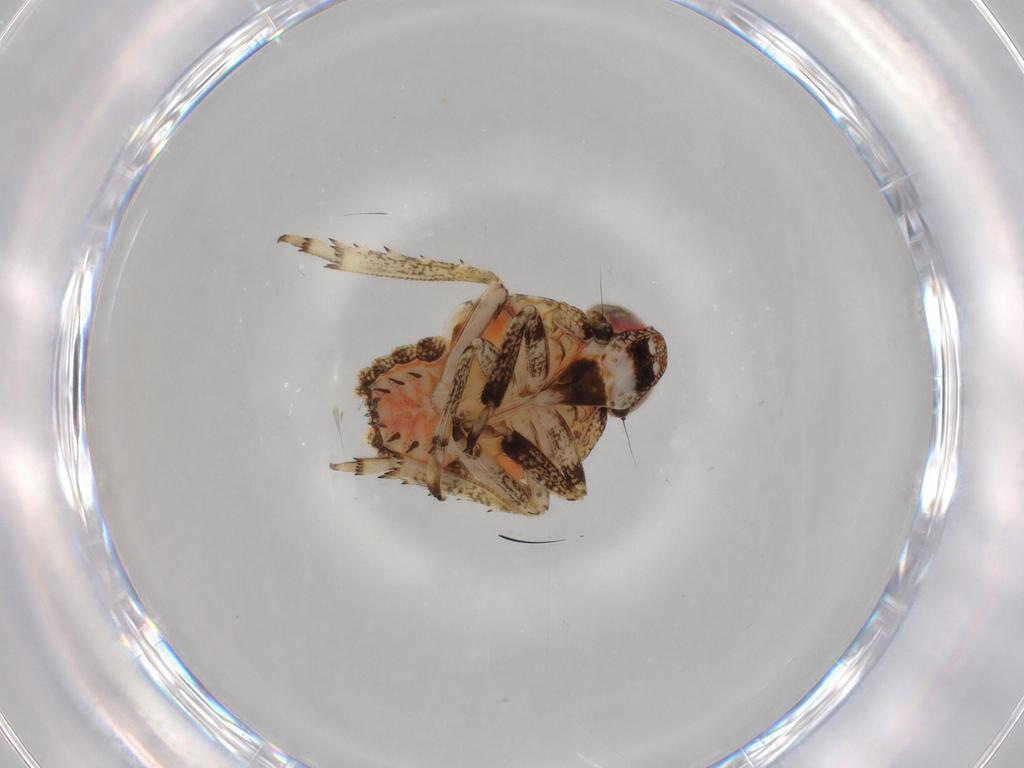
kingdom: Animalia
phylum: Arthropoda
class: Insecta
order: Hemiptera
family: Issidae
